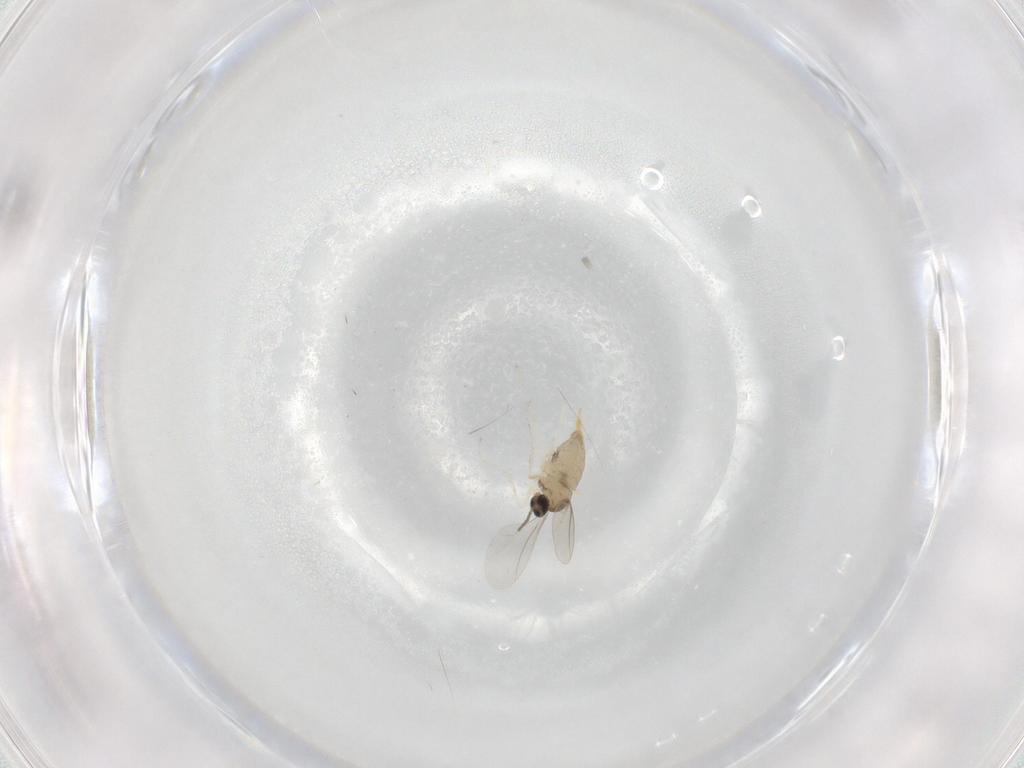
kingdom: Animalia
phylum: Arthropoda
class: Insecta
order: Diptera
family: Cecidomyiidae
